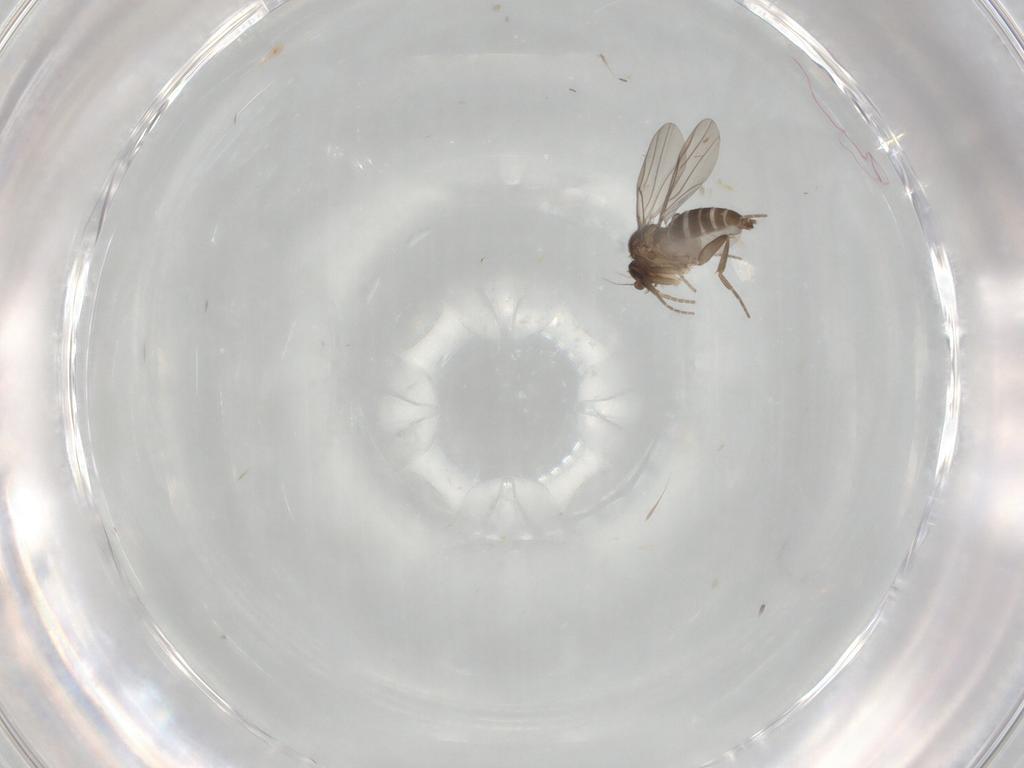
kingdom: Animalia
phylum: Arthropoda
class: Insecta
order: Diptera
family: Phoridae
